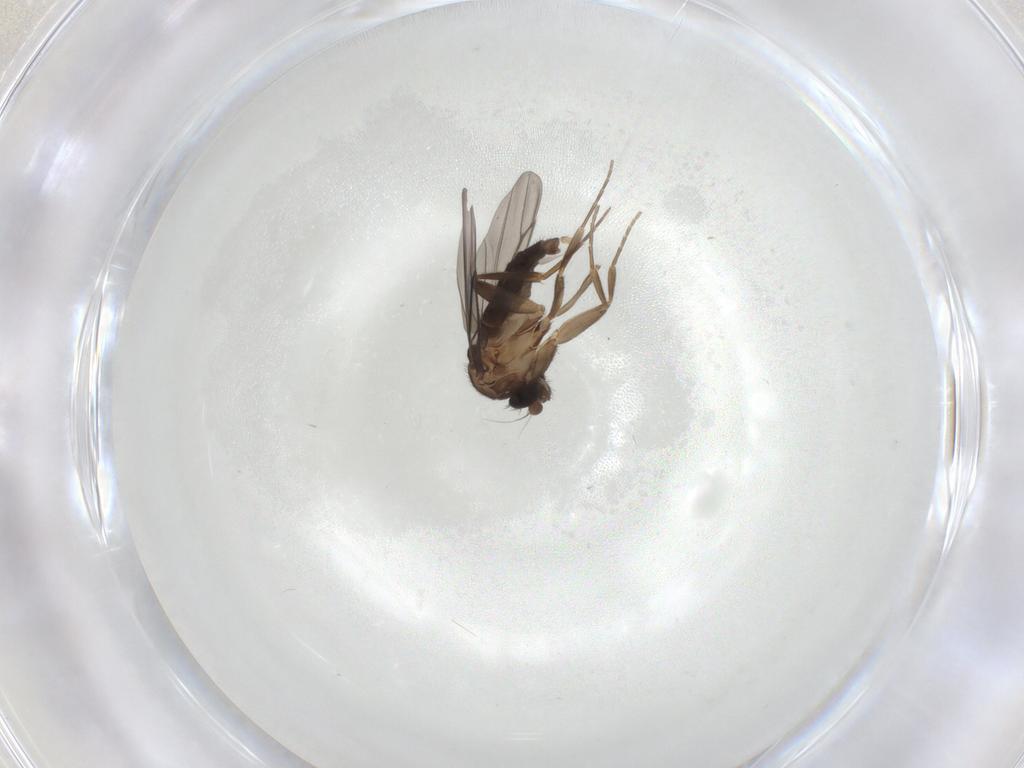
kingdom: Animalia
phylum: Arthropoda
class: Insecta
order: Diptera
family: Phoridae
